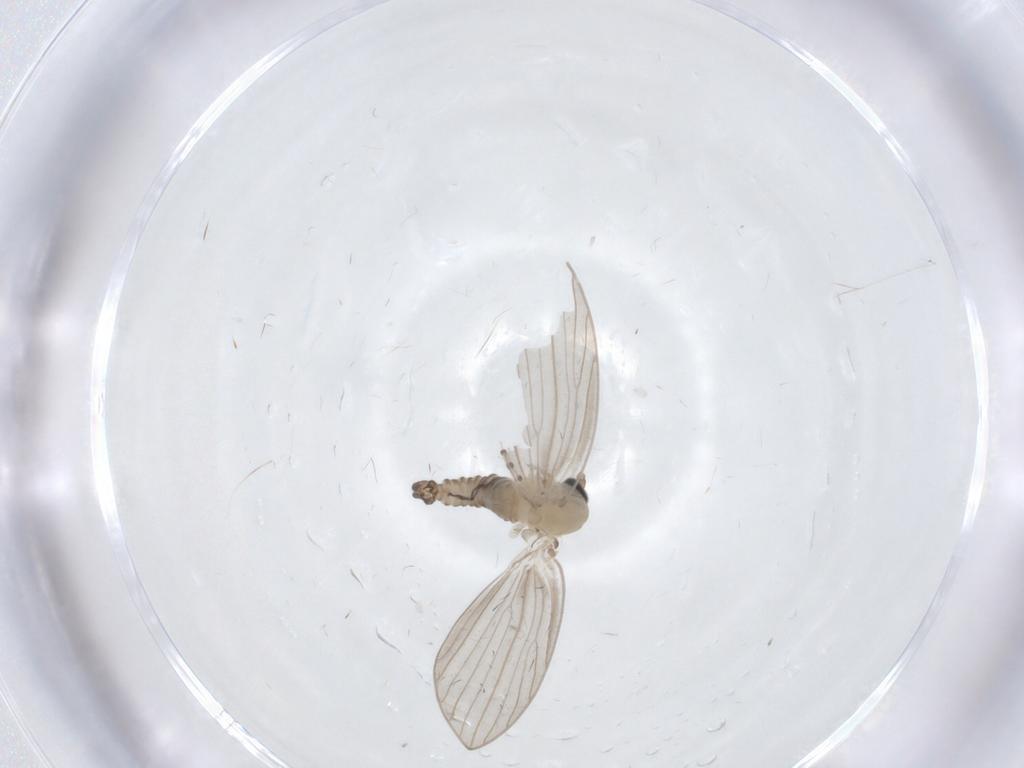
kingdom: Animalia
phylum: Arthropoda
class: Insecta
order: Diptera
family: Psychodidae
